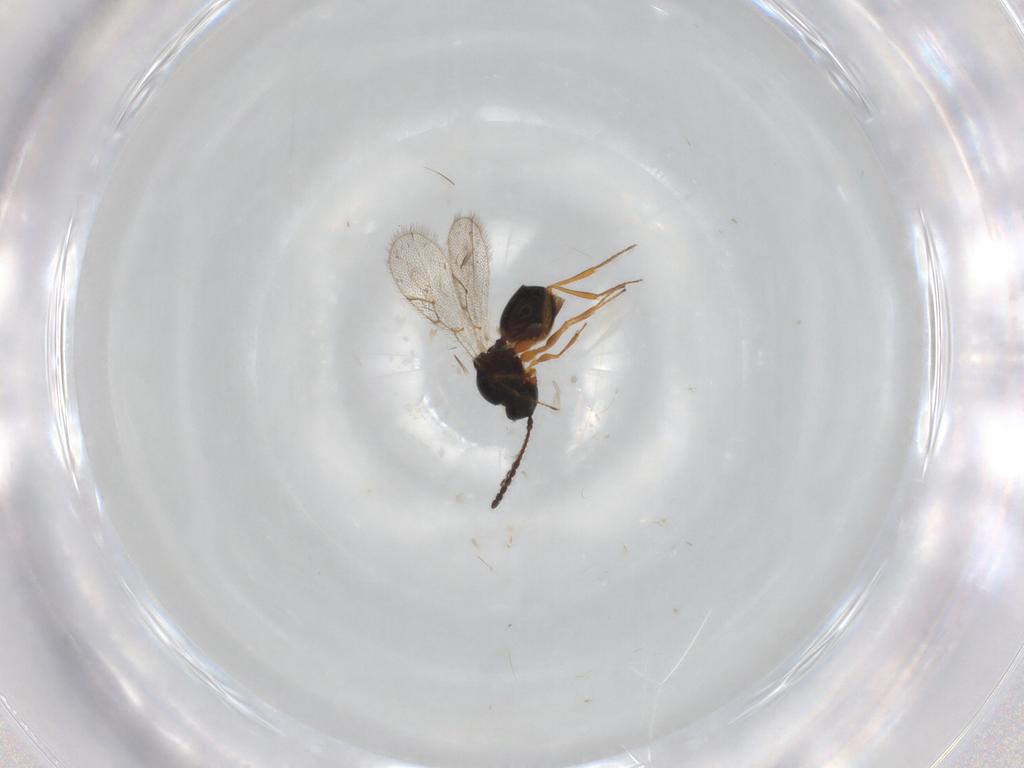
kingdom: Animalia
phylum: Arthropoda
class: Insecta
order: Hymenoptera
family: Figitidae
